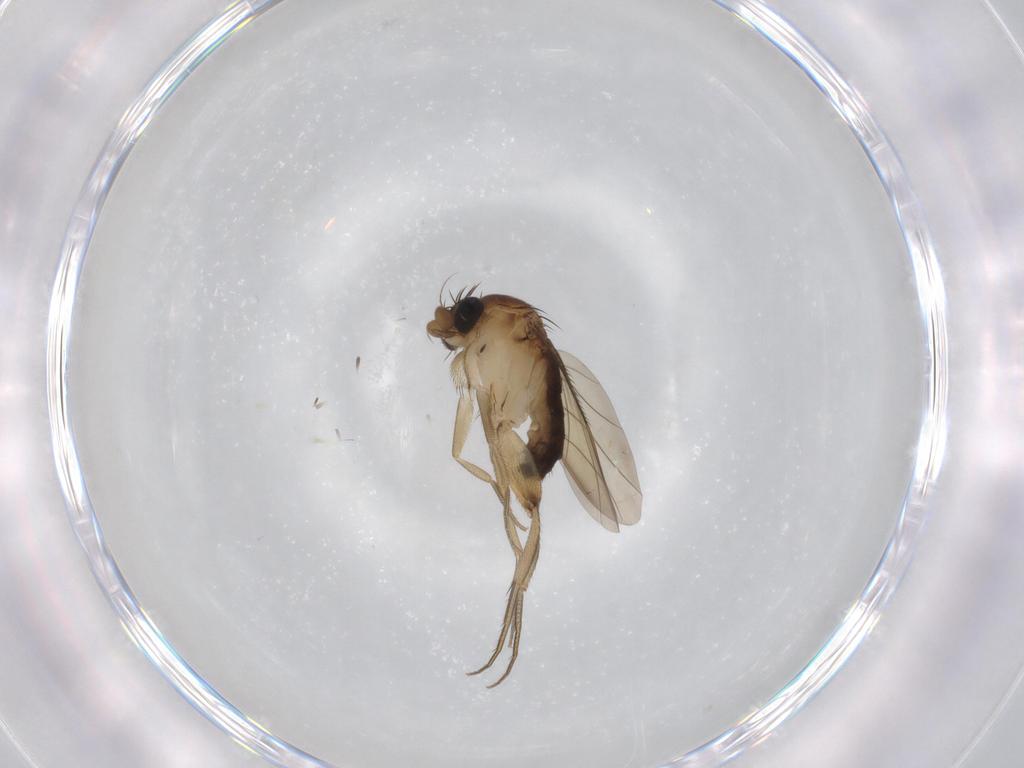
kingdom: Animalia
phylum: Arthropoda
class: Insecta
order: Diptera
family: Phoridae
